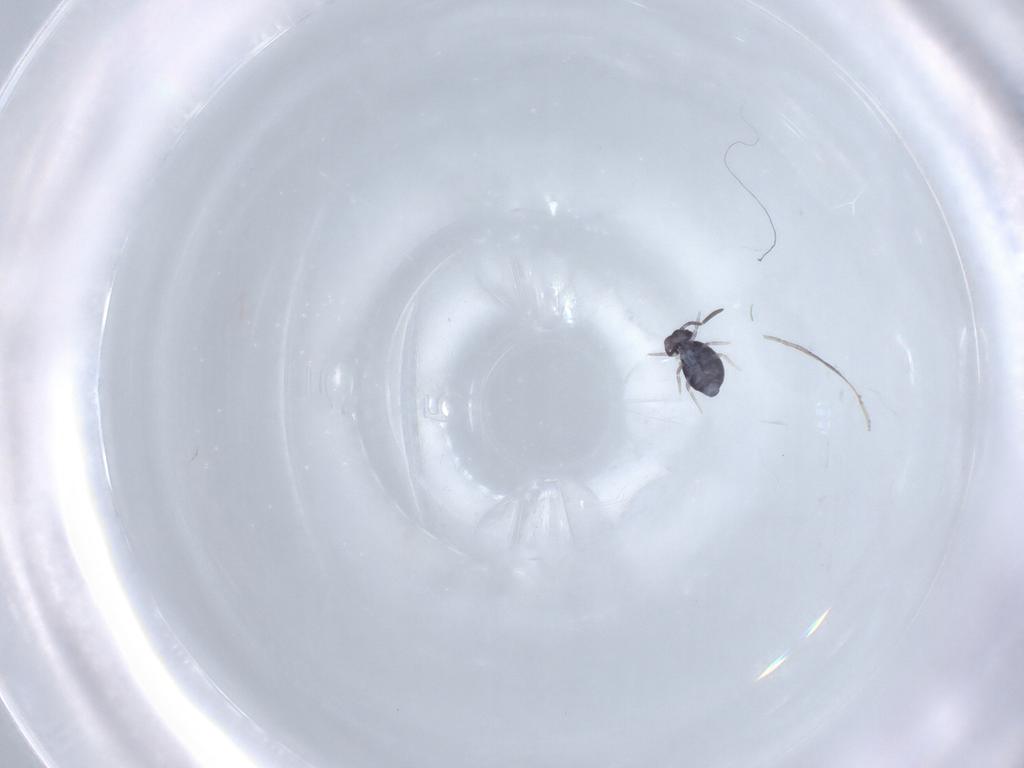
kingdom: Animalia
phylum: Arthropoda
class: Collembola
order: Symphypleona
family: Katiannidae
